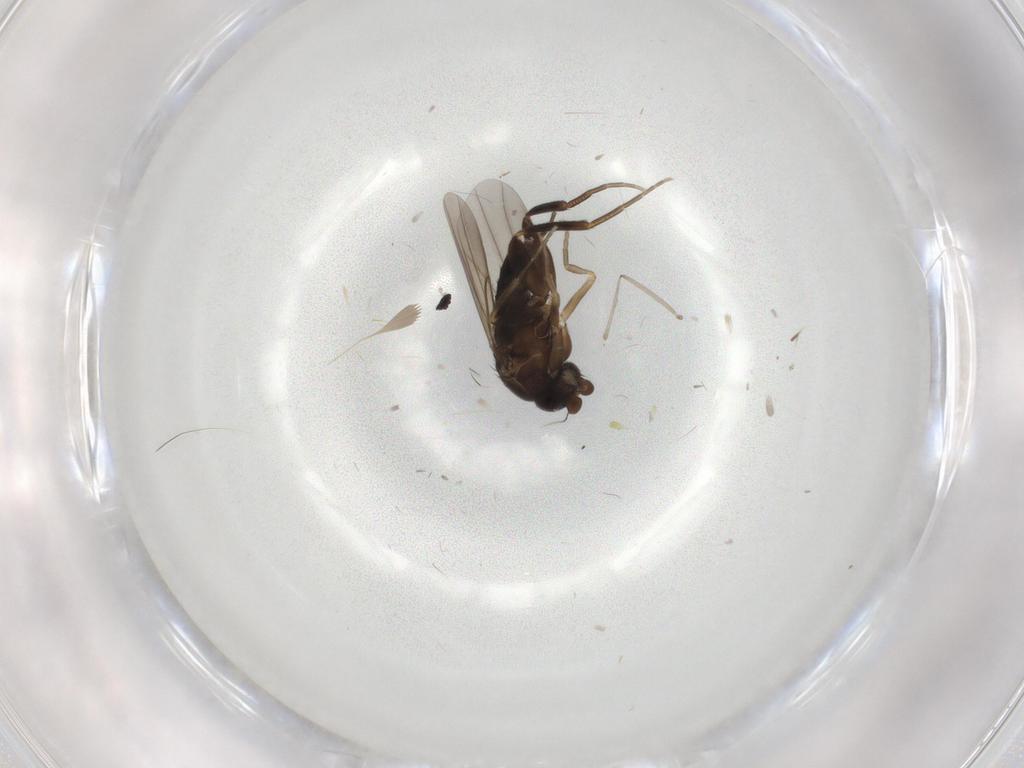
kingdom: Animalia
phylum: Arthropoda
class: Insecta
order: Diptera
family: Cecidomyiidae
